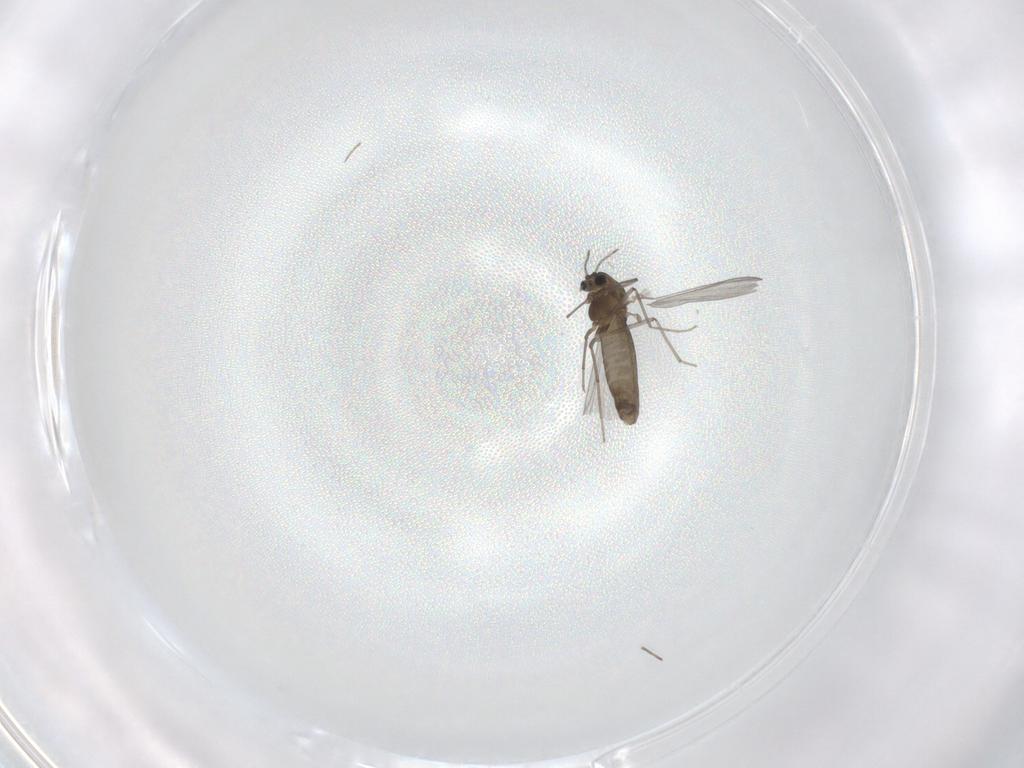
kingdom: Animalia
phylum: Arthropoda
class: Insecta
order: Diptera
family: Chironomidae
